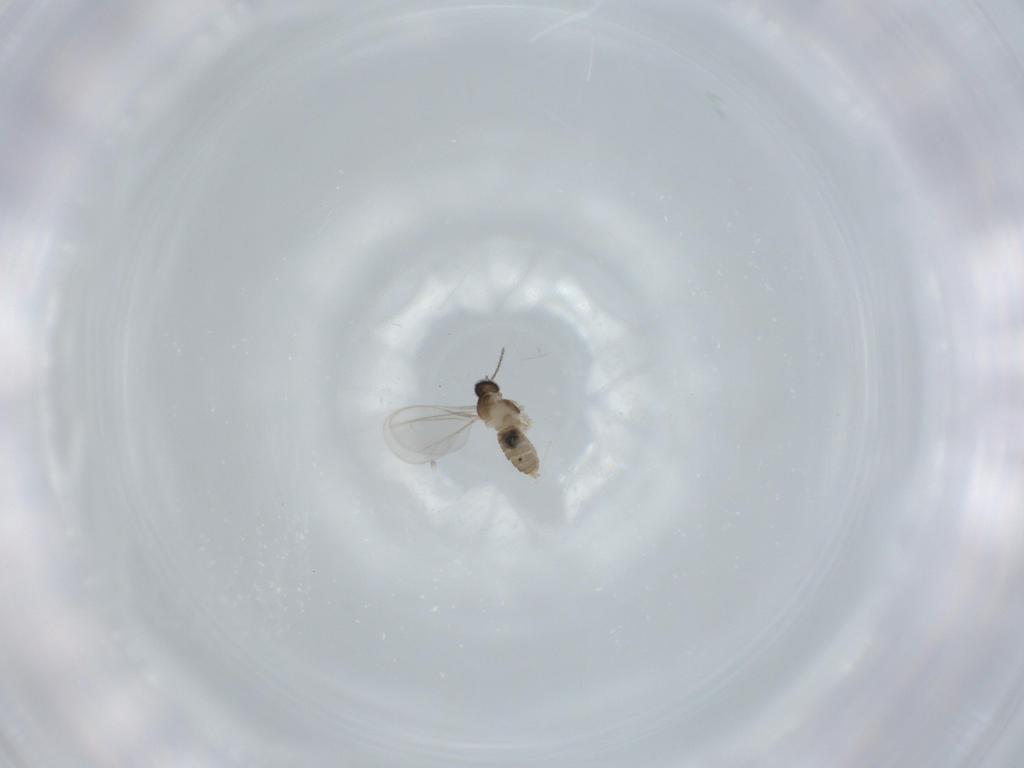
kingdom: Animalia
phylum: Arthropoda
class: Insecta
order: Diptera
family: Cecidomyiidae
